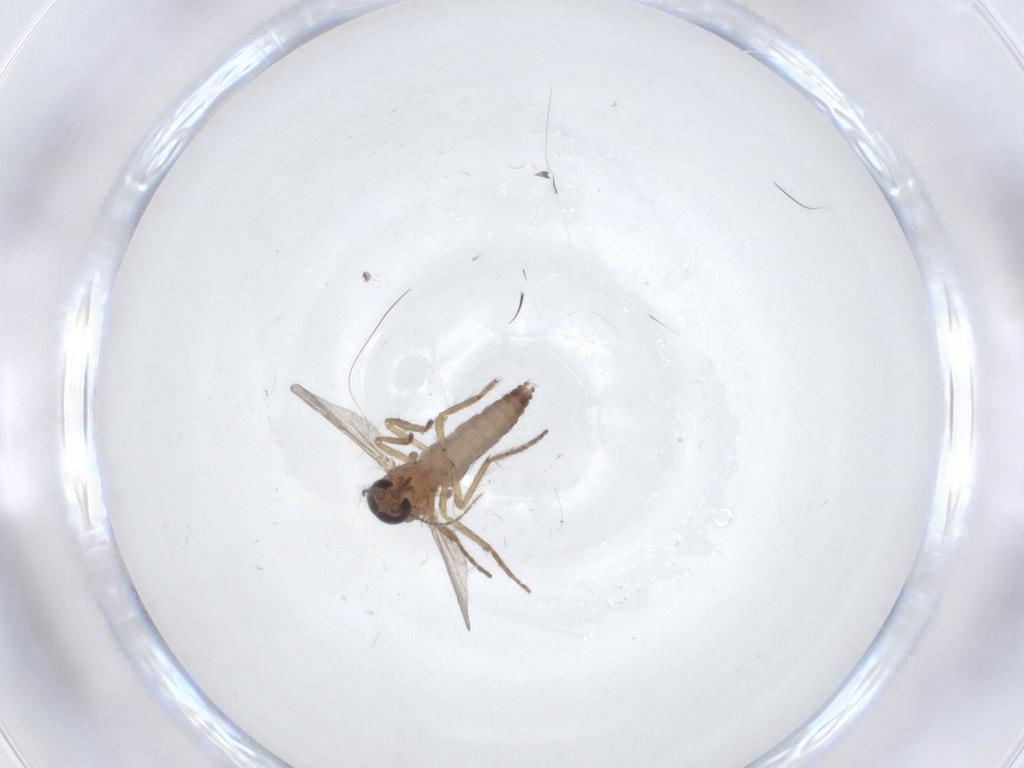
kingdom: Animalia
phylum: Arthropoda
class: Insecta
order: Diptera
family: Ceratopogonidae
